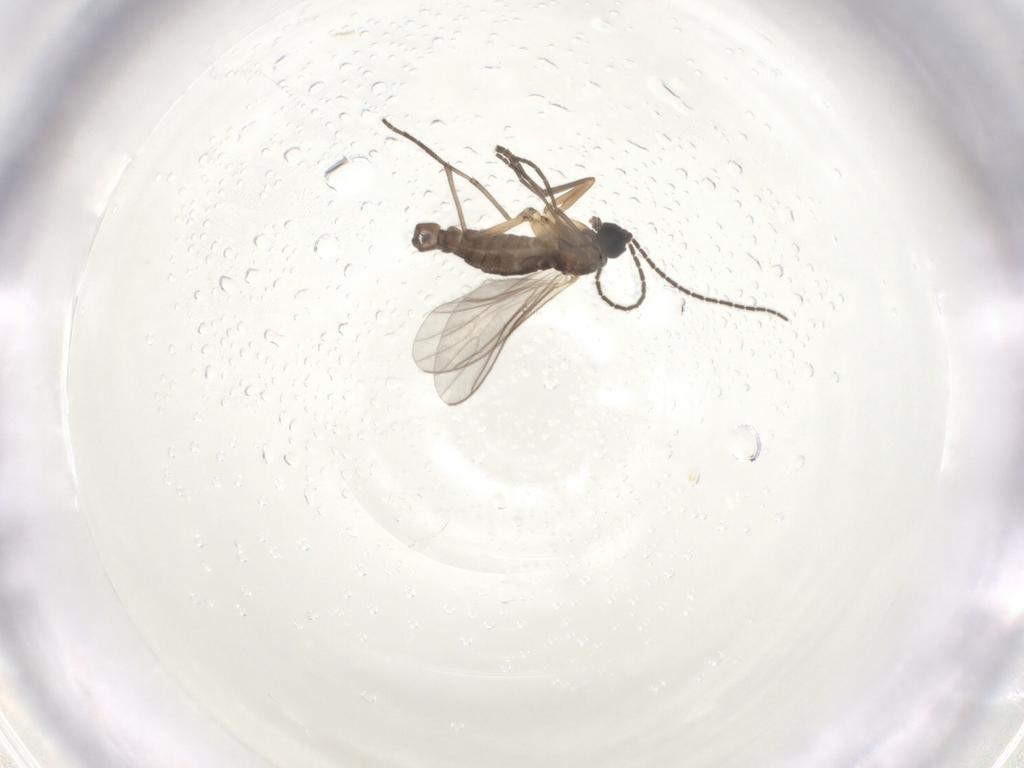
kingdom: Animalia
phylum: Arthropoda
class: Insecta
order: Diptera
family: Sciaridae
